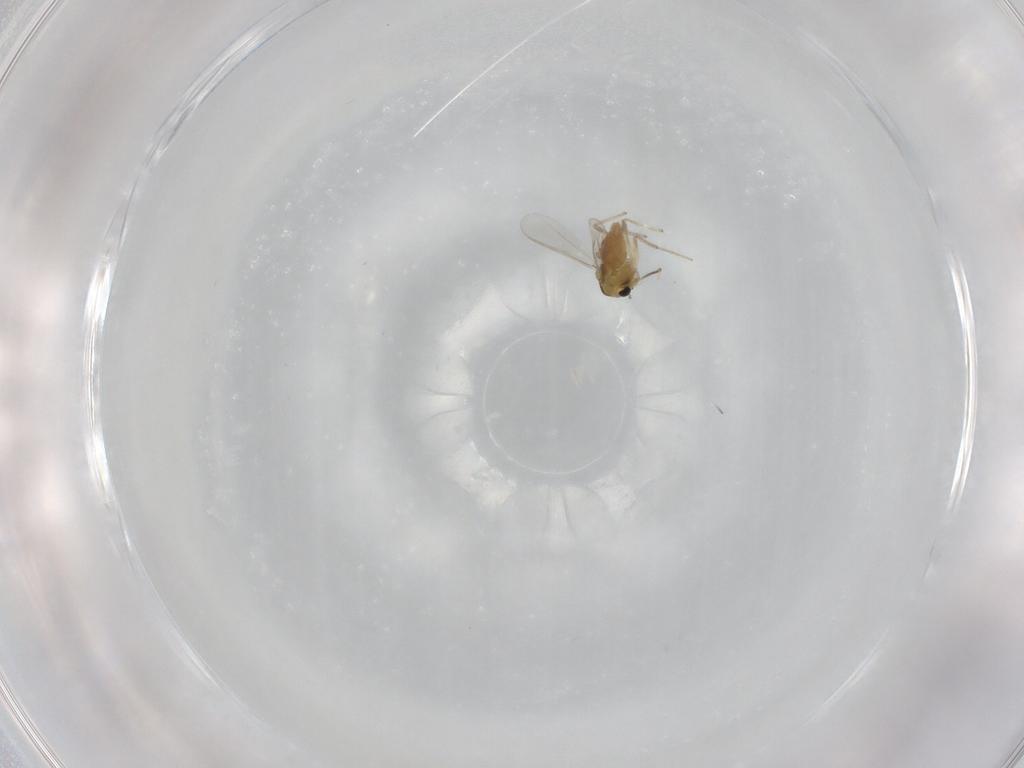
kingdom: Animalia
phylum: Arthropoda
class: Insecta
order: Diptera
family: Chironomidae
